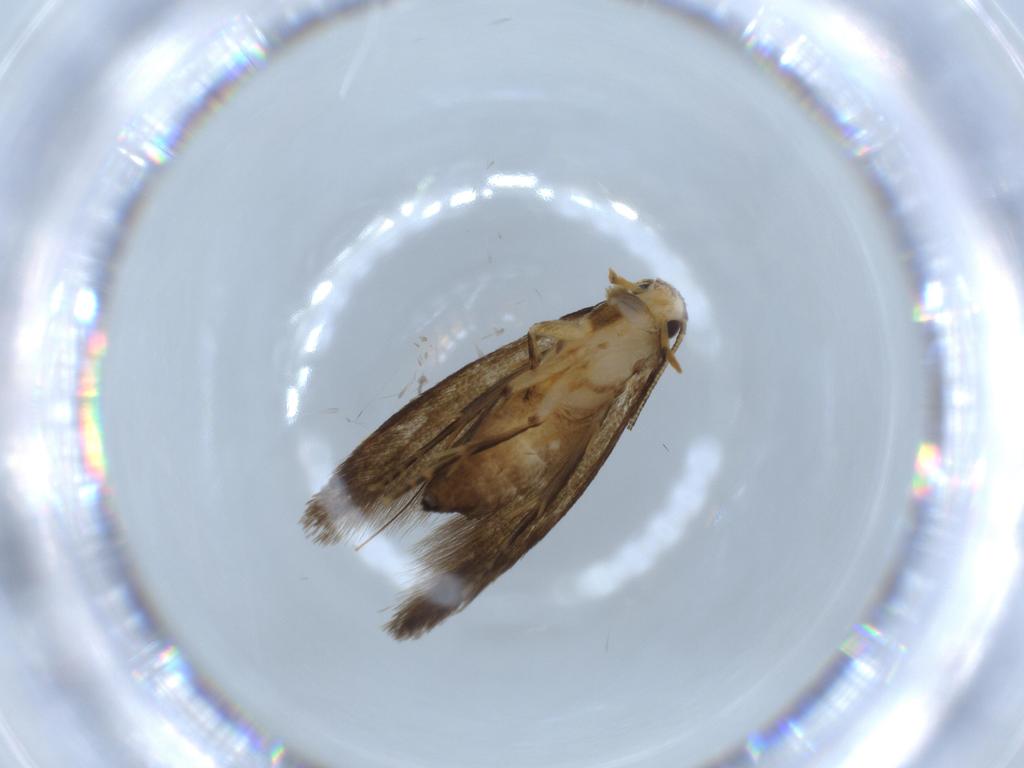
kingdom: Animalia
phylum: Arthropoda
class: Insecta
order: Lepidoptera
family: Tineidae
